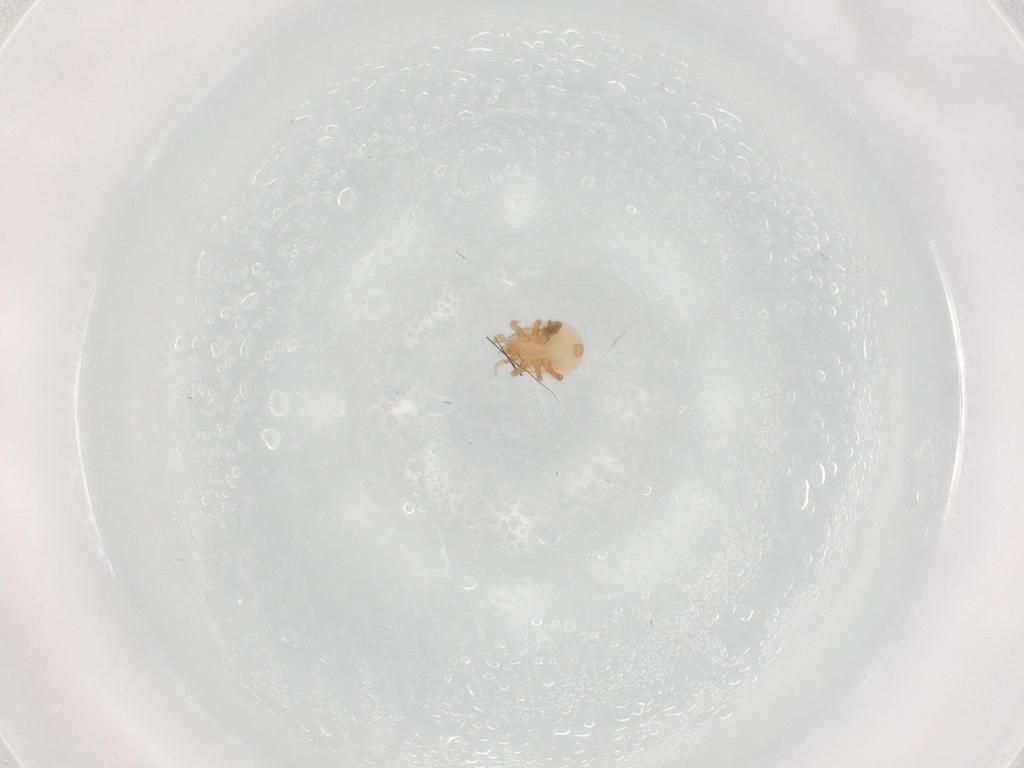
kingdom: Animalia
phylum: Arthropoda
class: Arachnida
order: Mesostigmata
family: Halolaelapidae
